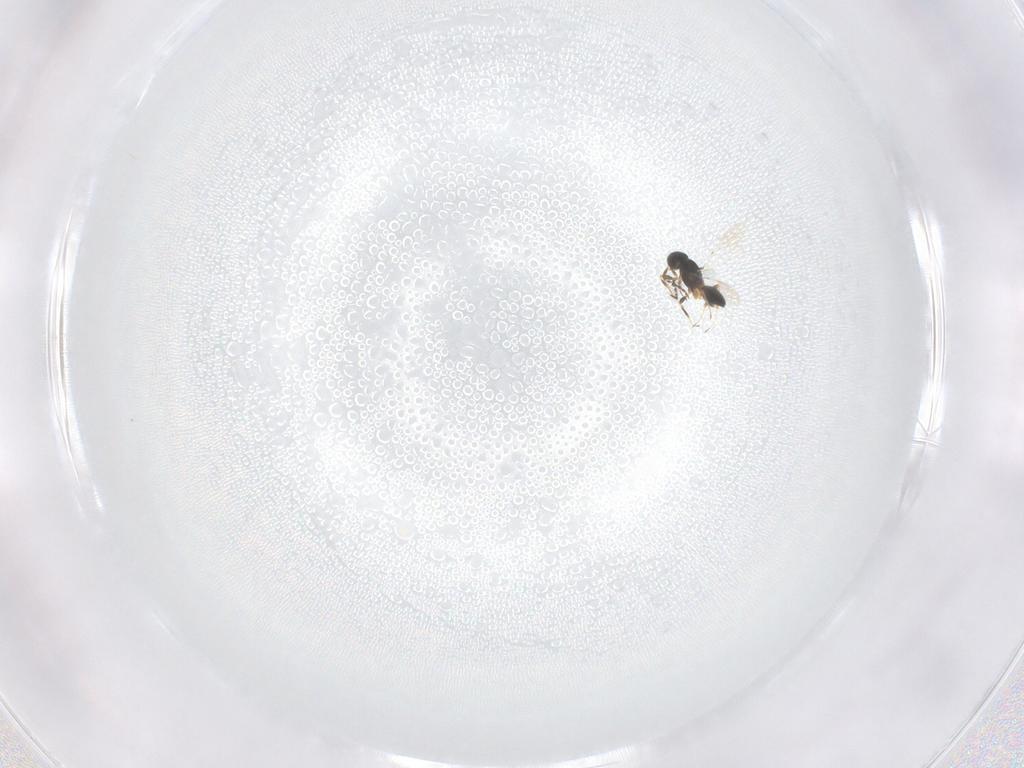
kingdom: Animalia
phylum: Arthropoda
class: Insecta
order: Hymenoptera
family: Platygastridae
